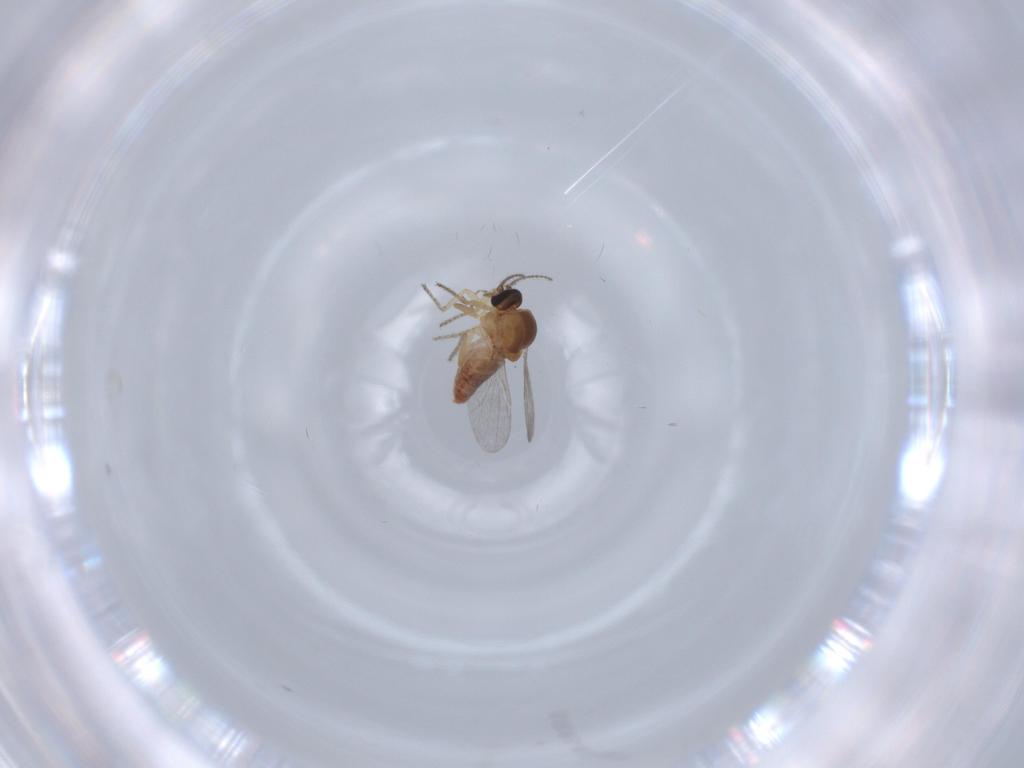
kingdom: Animalia
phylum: Arthropoda
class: Insecta
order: Diptera
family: Ceratopogonidae
